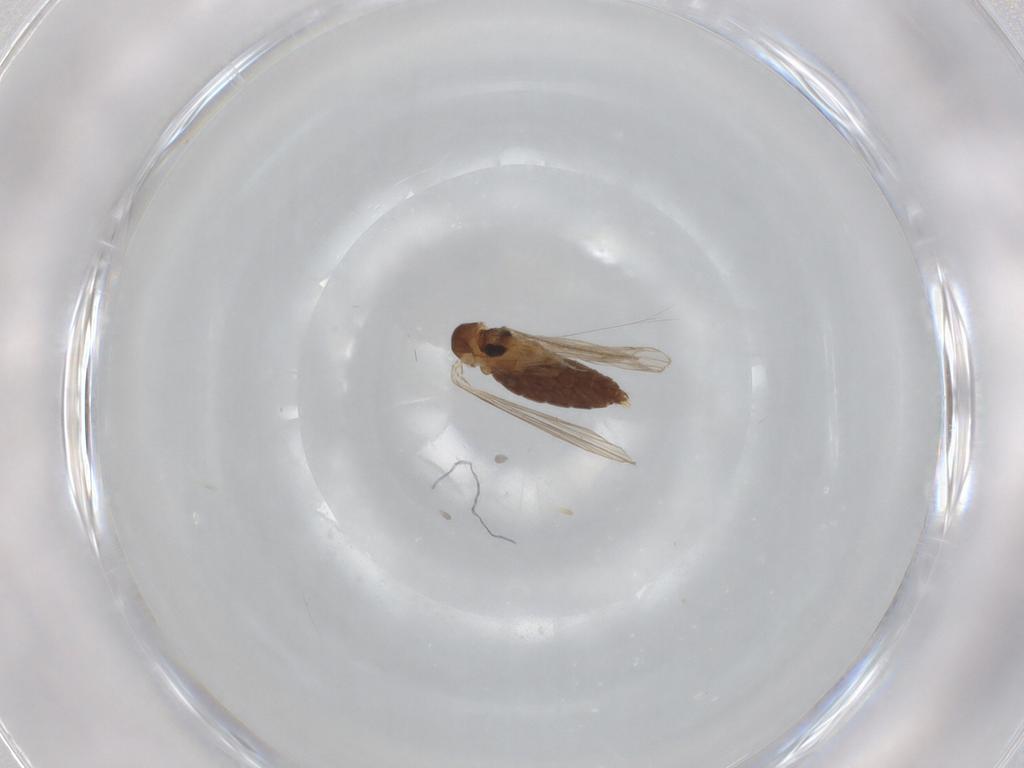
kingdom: Animalia
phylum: Arthropoda
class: Insecta
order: Diptera
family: Psychodidae
